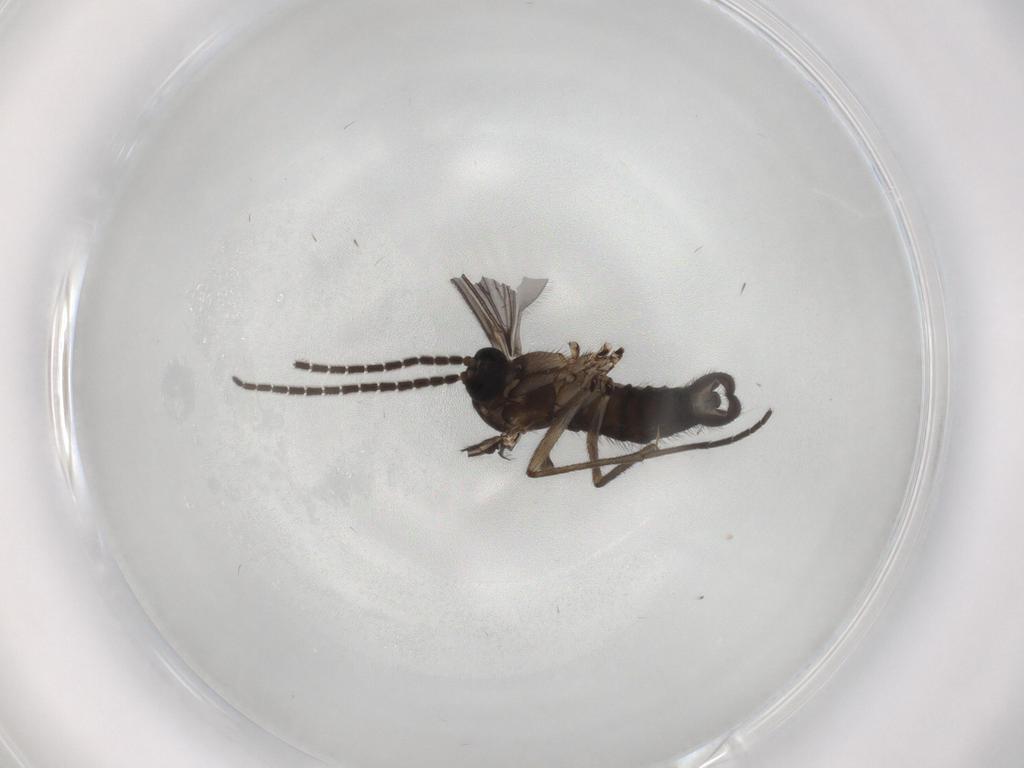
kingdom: Animalia
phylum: Arthropoda
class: Insecta
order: Diptera
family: Sciaridae
